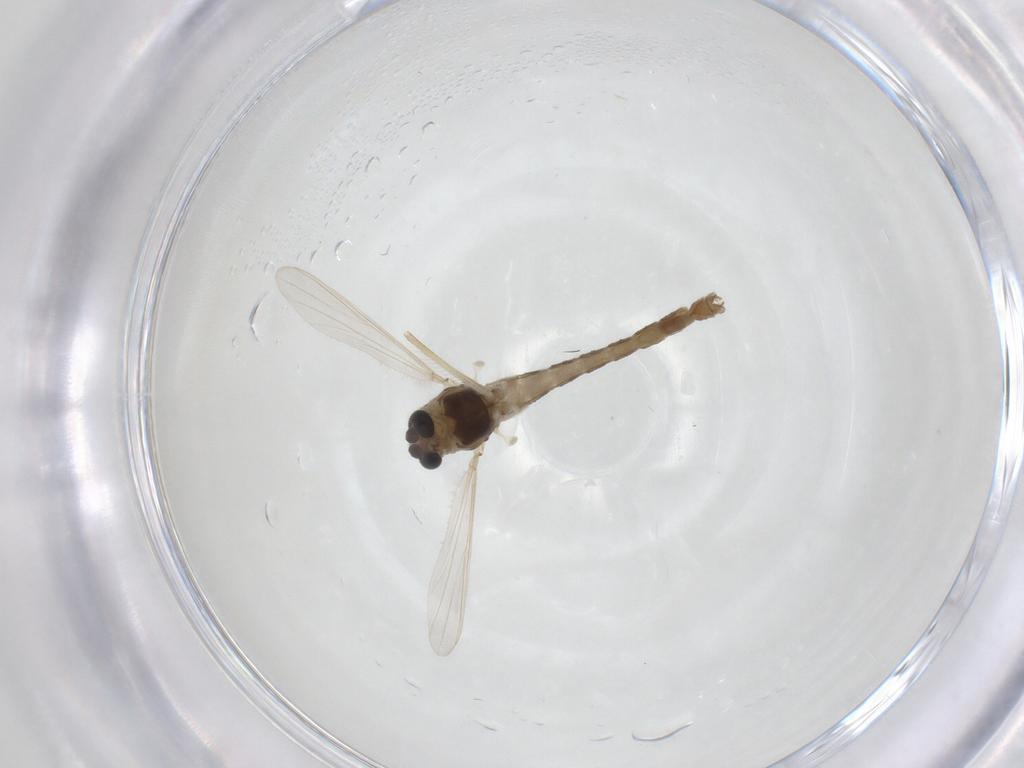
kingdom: Animalia
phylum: Arthropoda
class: Insecta
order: Diptera
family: Chironomidae
